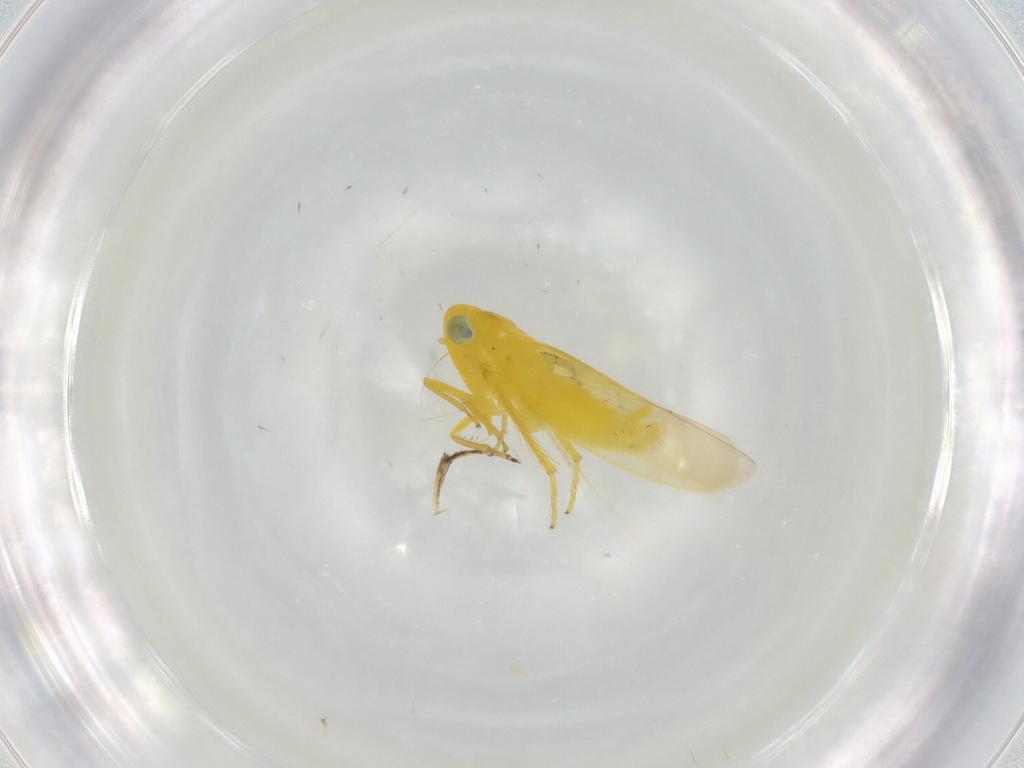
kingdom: Animalia
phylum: Arthropoda
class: Insecta
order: Hemiptera
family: Cicadellidae
